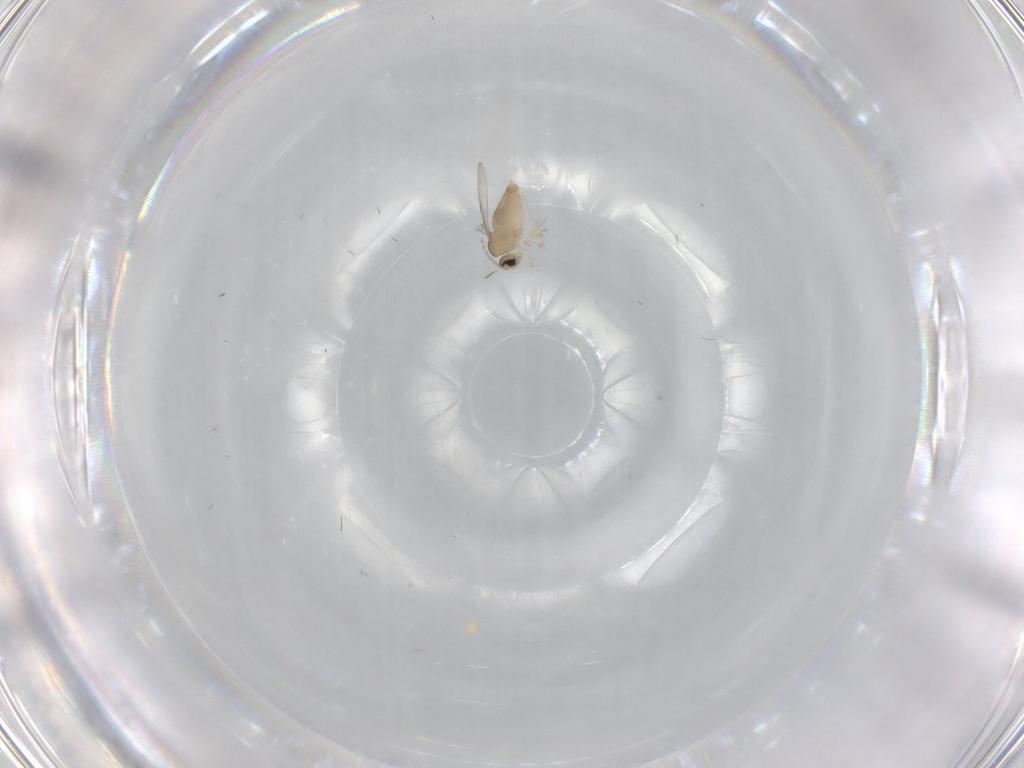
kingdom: Animalia
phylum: Arthropoda
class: Insecta
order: Diptera
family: Cecidomyiidae
